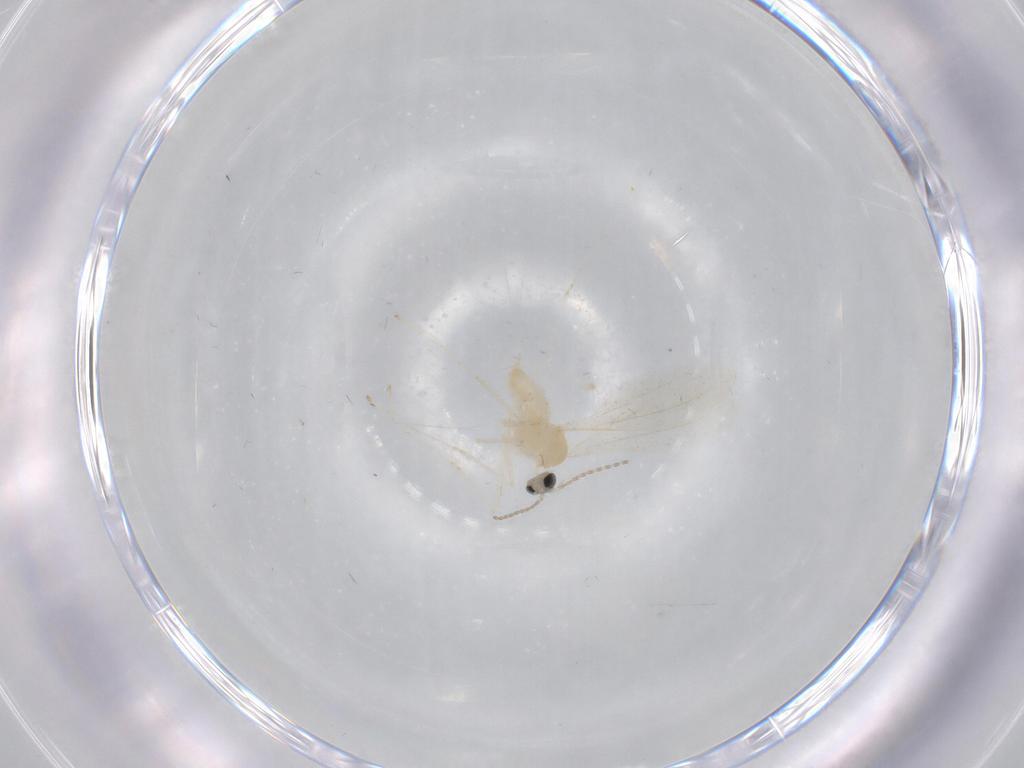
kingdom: Animalia
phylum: Arthropoda
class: Insecta
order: Diptera
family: Cecidomyiidae
